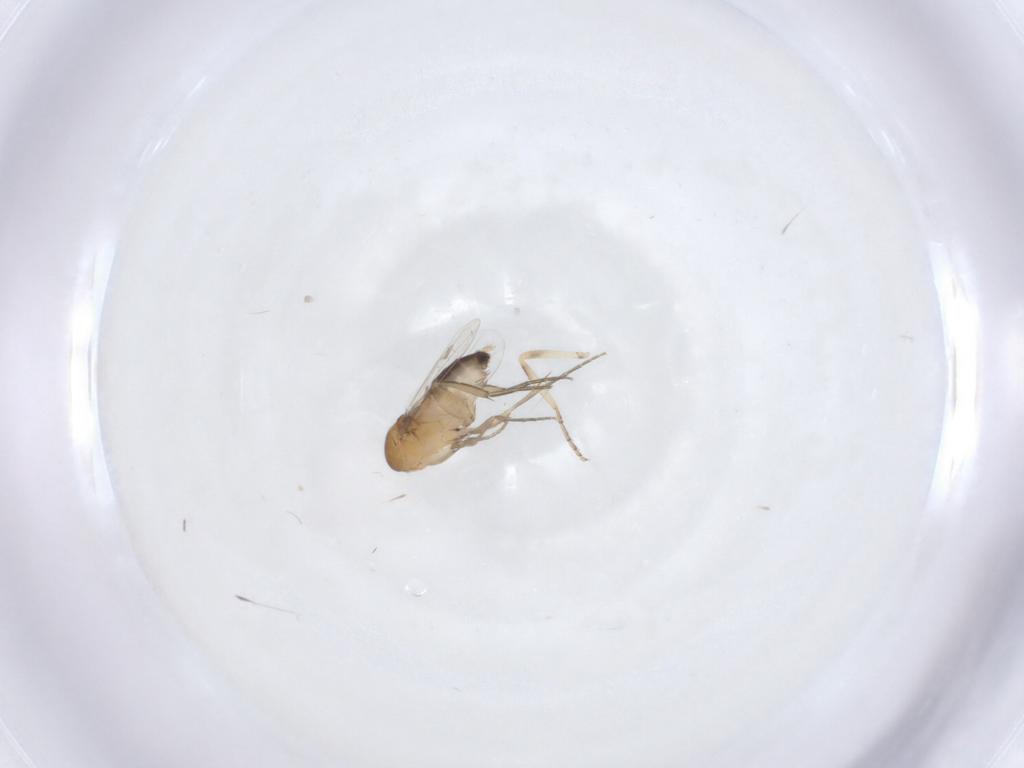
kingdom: Animalia
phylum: Arthropoda
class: Insecta
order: Diptera
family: Phoridae
